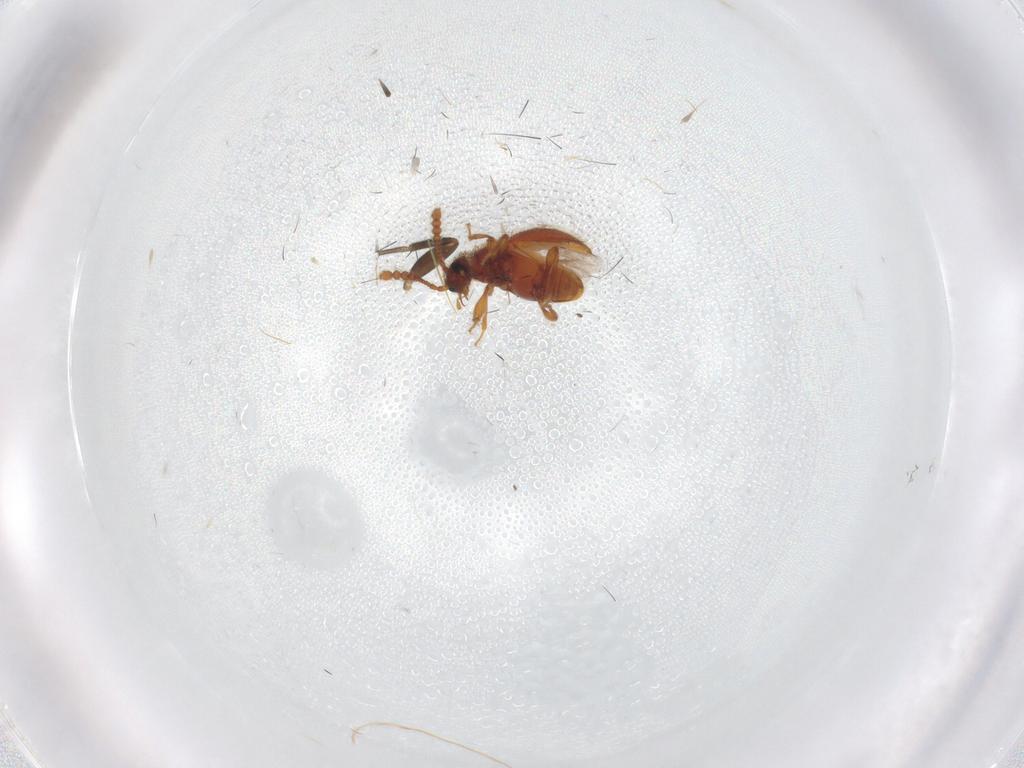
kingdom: Animalia
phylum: Arthropoda
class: Insecta
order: Coleoptera
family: Staphylinidae
